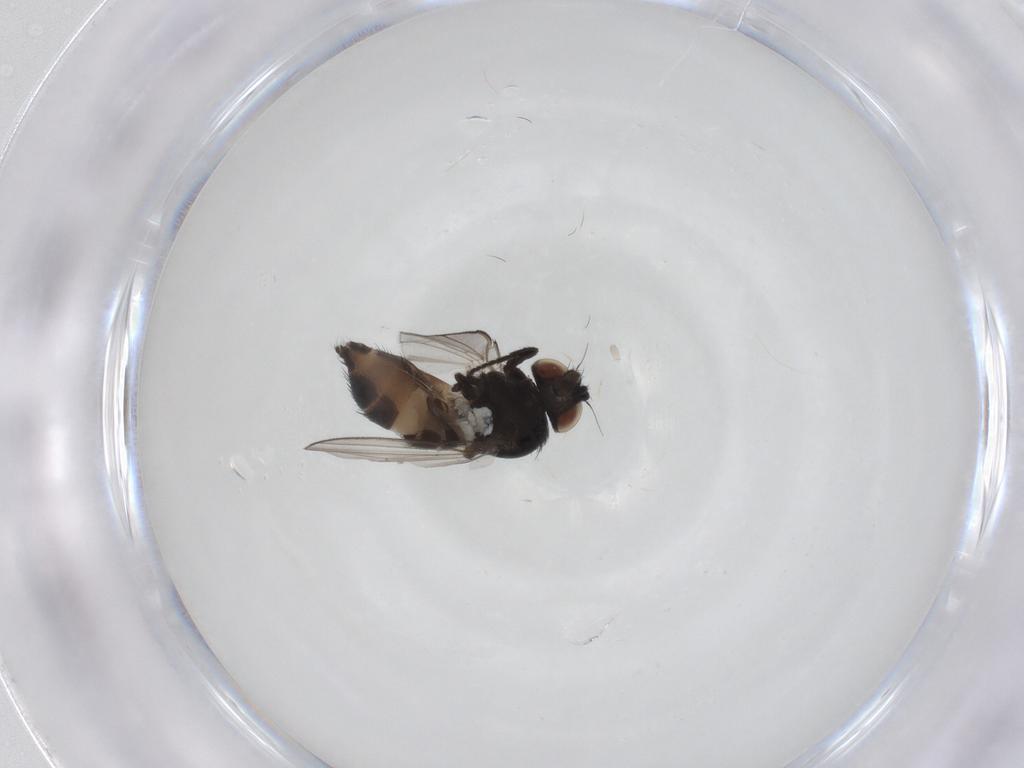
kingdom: Animalia
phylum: Arthropoda
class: Insecta
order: Diptera
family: Milichiidae
